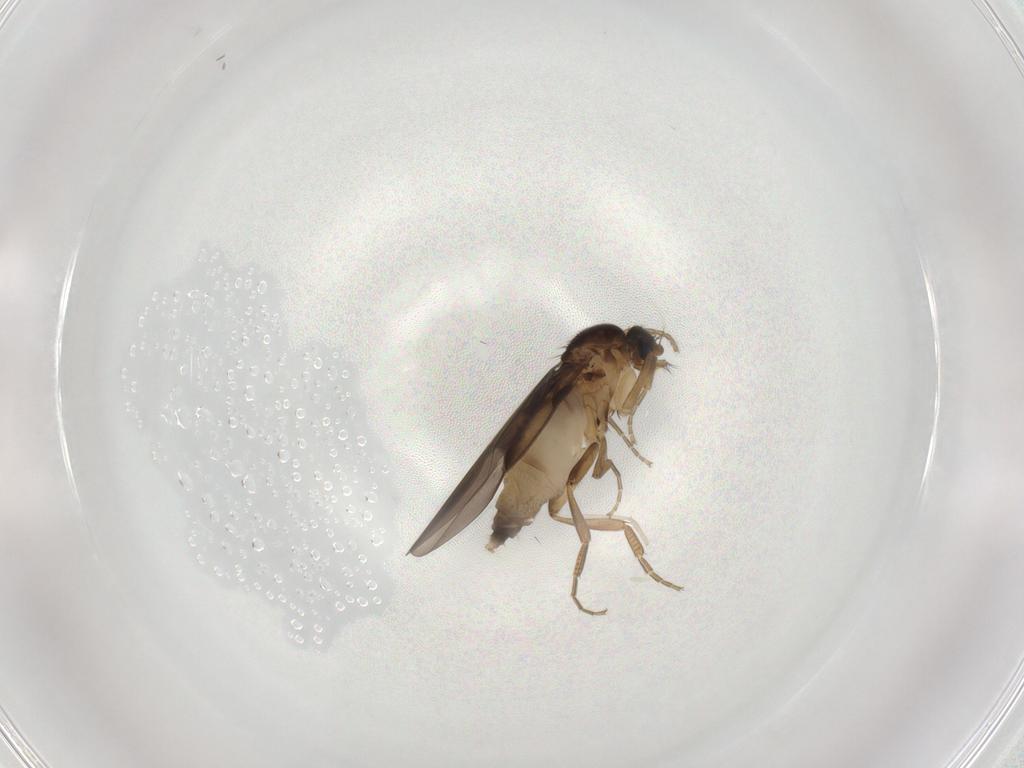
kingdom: Animalia
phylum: Arthropoda
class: Insecta
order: Diptera
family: Phoridae
